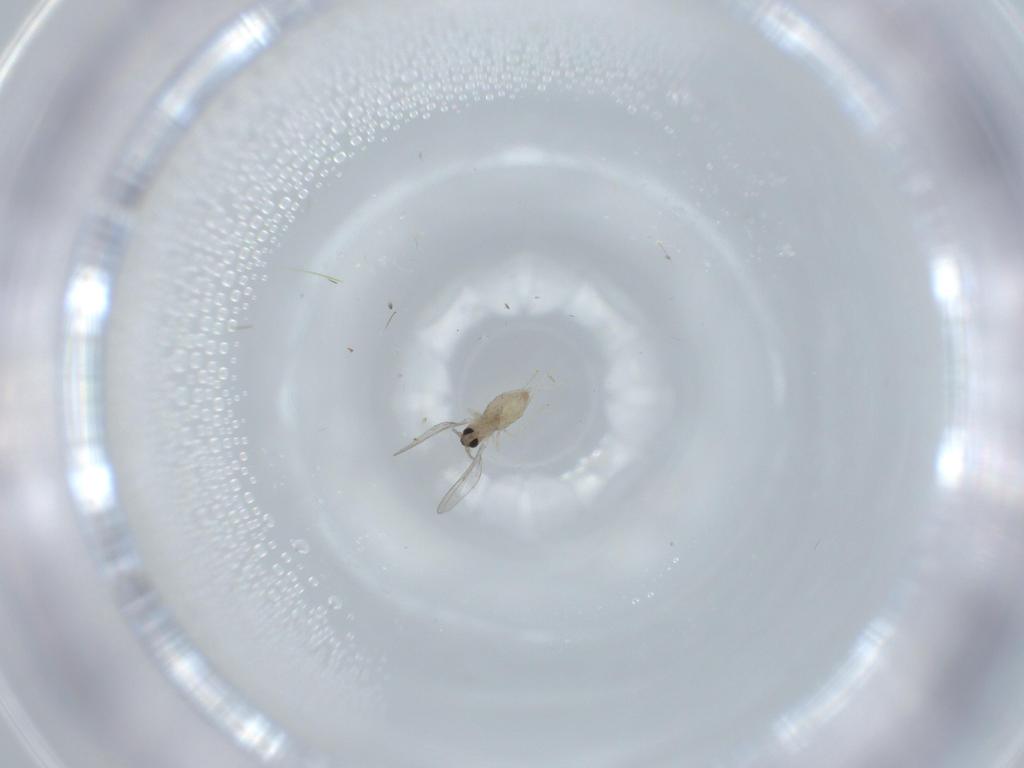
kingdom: Animalia
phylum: Arthropoda
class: Insecta
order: Diptera
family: Cecidomyiidae
